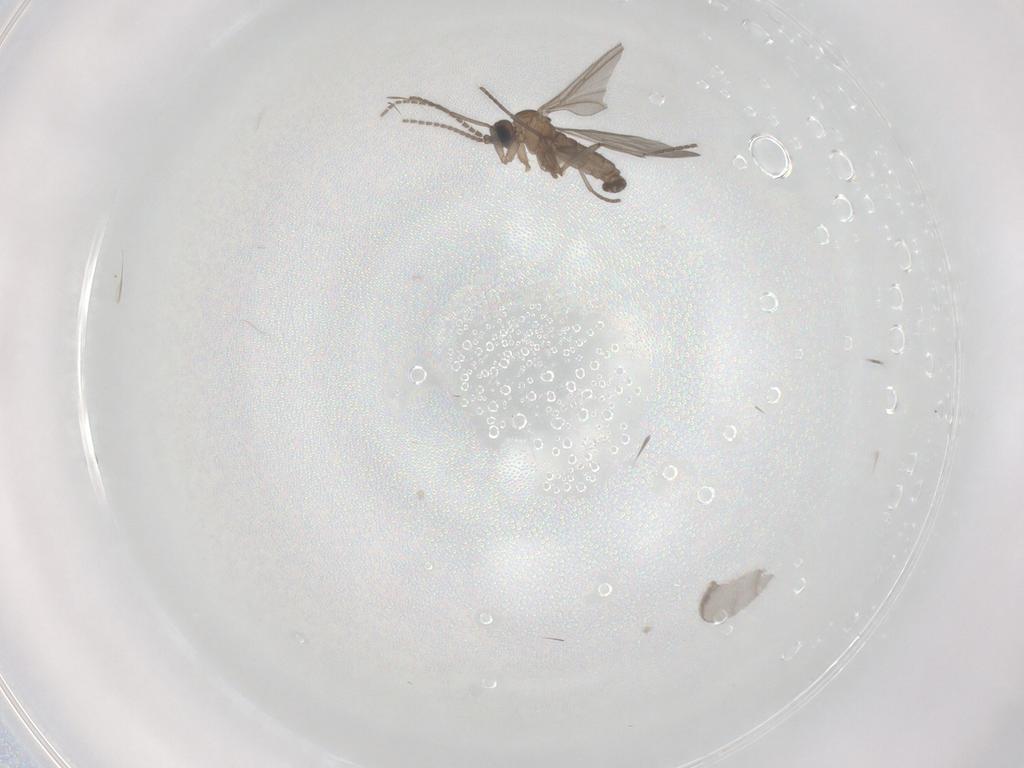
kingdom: Animalia
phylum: Arthropoda
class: Insecta
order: Diptera
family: Sciaridae
